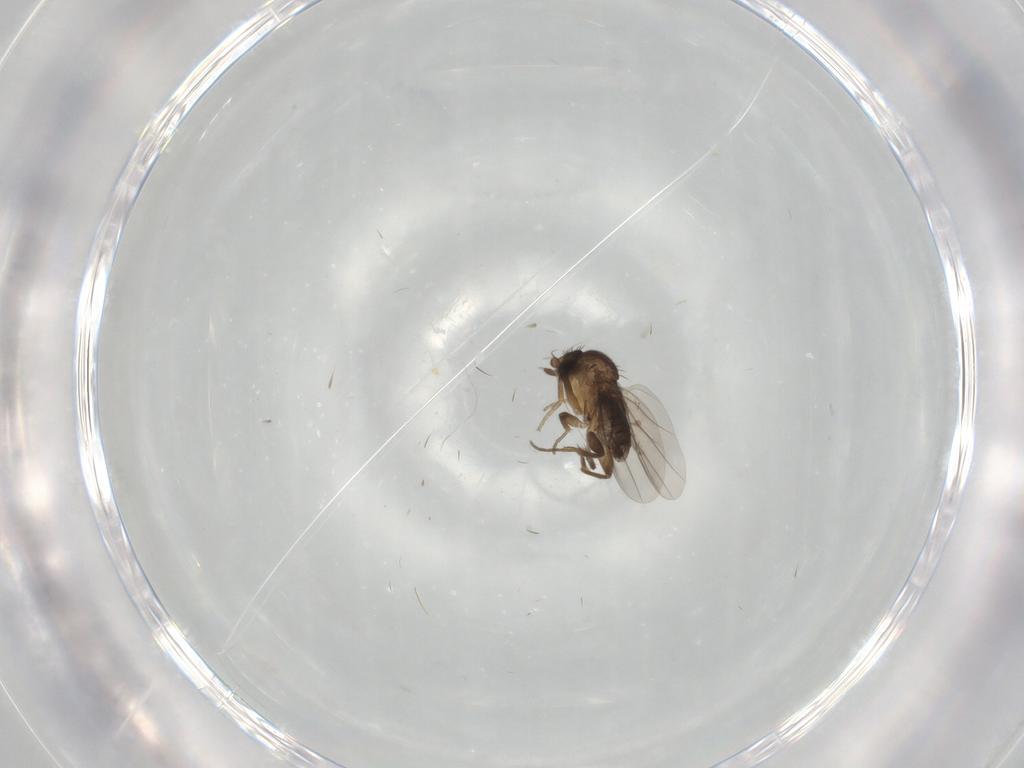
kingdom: Animalia
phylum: Arthropoda
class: Insecta
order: Diptera
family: Phoridae
